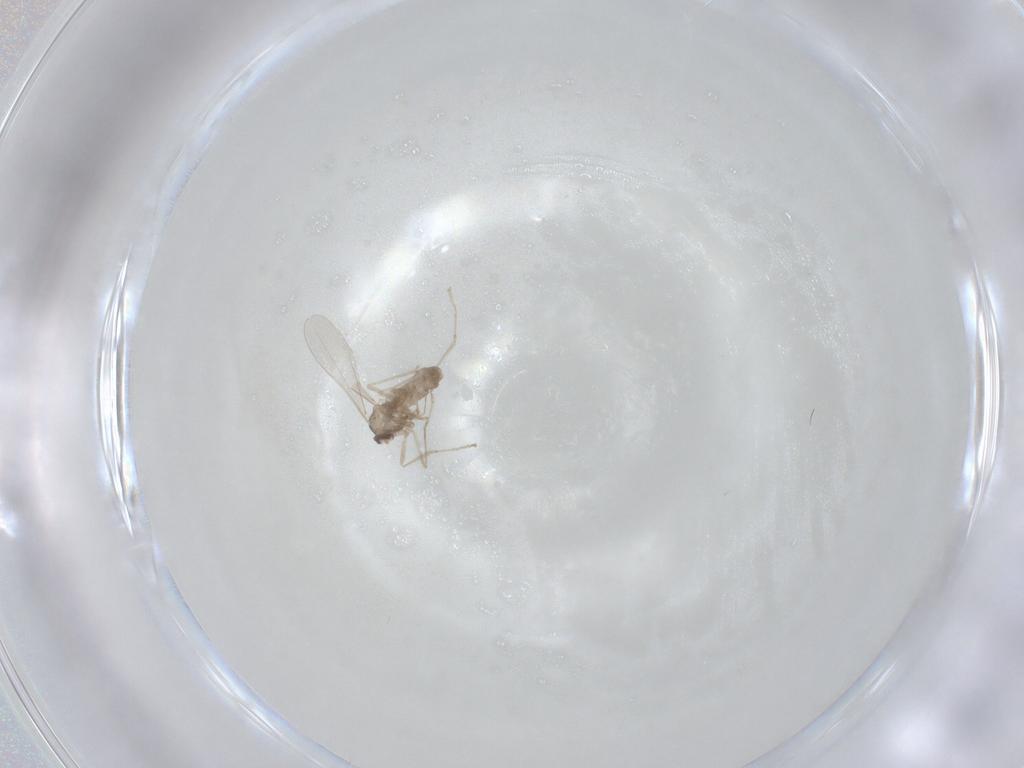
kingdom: Animalia
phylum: Arthropoda
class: Insecta
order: Diptera
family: Cecidomyiidae
